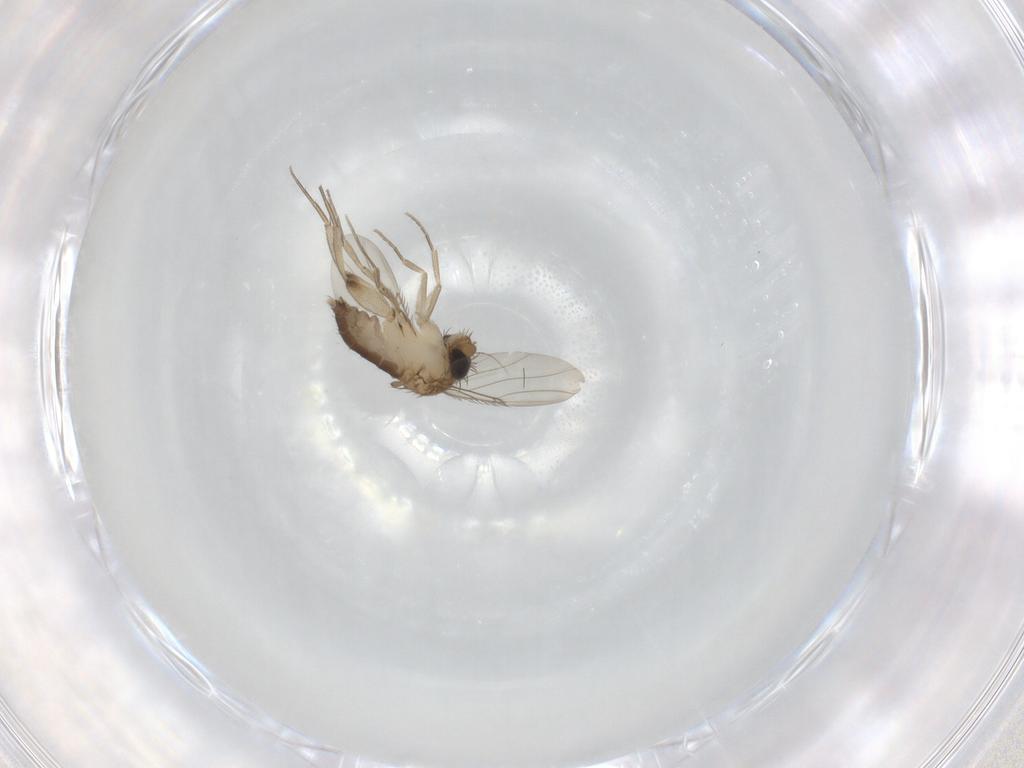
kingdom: Animalia
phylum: Arthropoda
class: Insecta
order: Diptera
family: Phoridae
